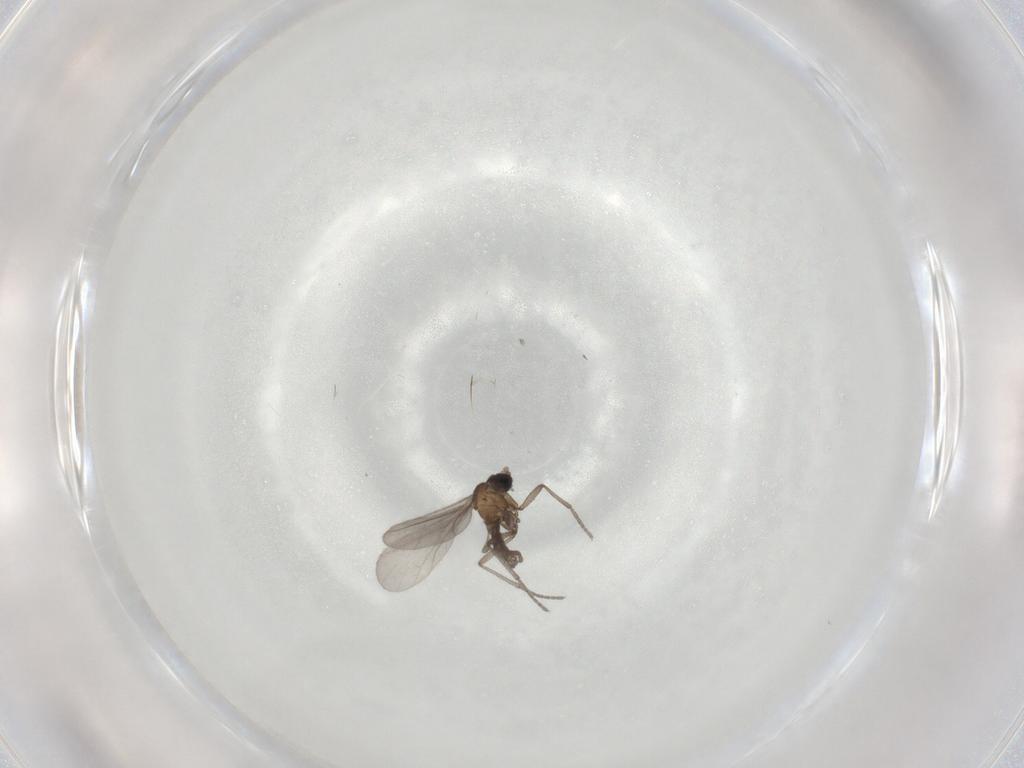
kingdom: Animalia
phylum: Arthropoda
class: Insecta
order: Diptera
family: Sciaridae
